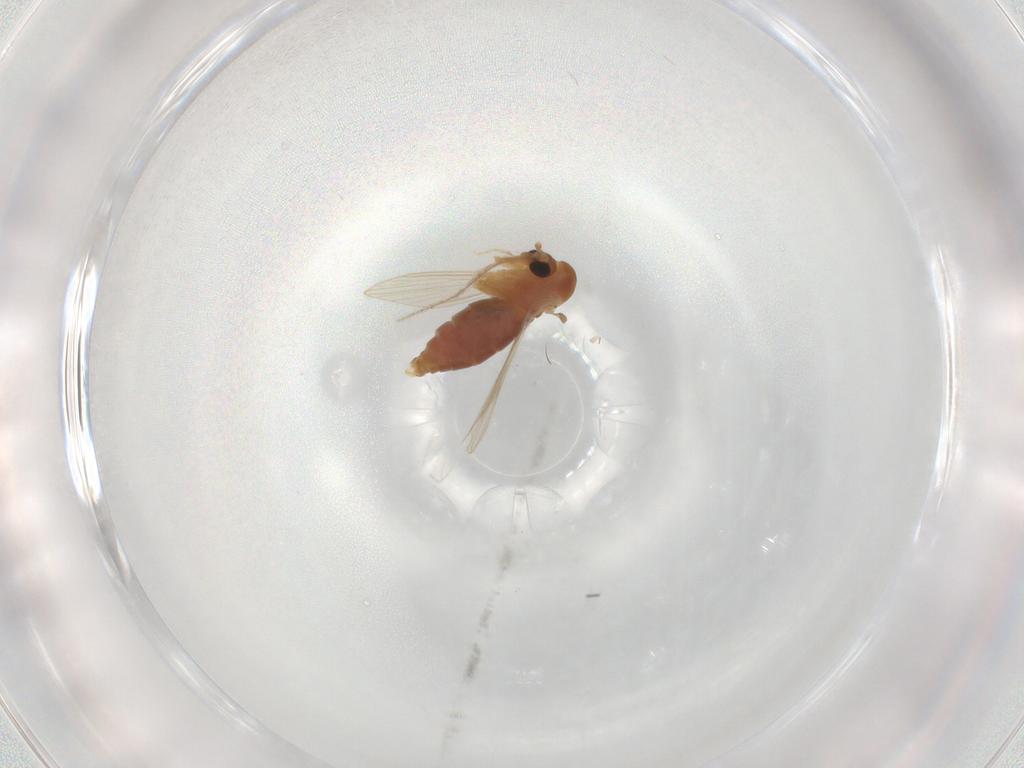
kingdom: Animalia
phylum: Arthropoda
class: Insecta
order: Diptera
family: Psychodidae
